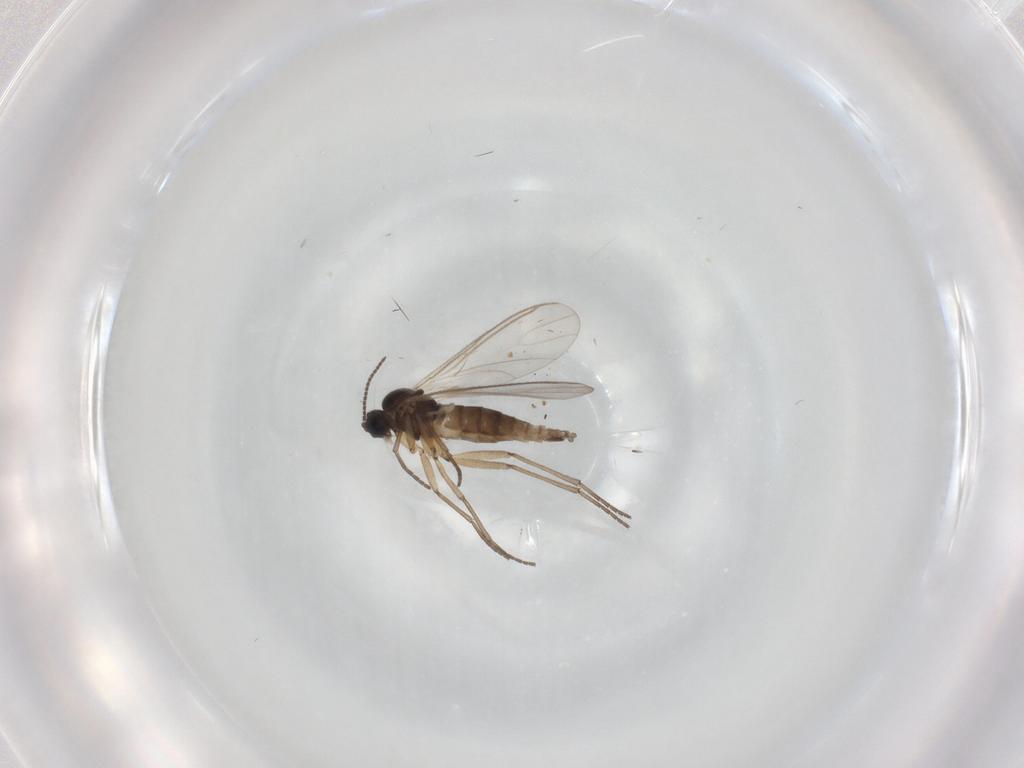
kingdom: Animalia
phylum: Arthropoda
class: Insecta
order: Diptera
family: Sciaridae
